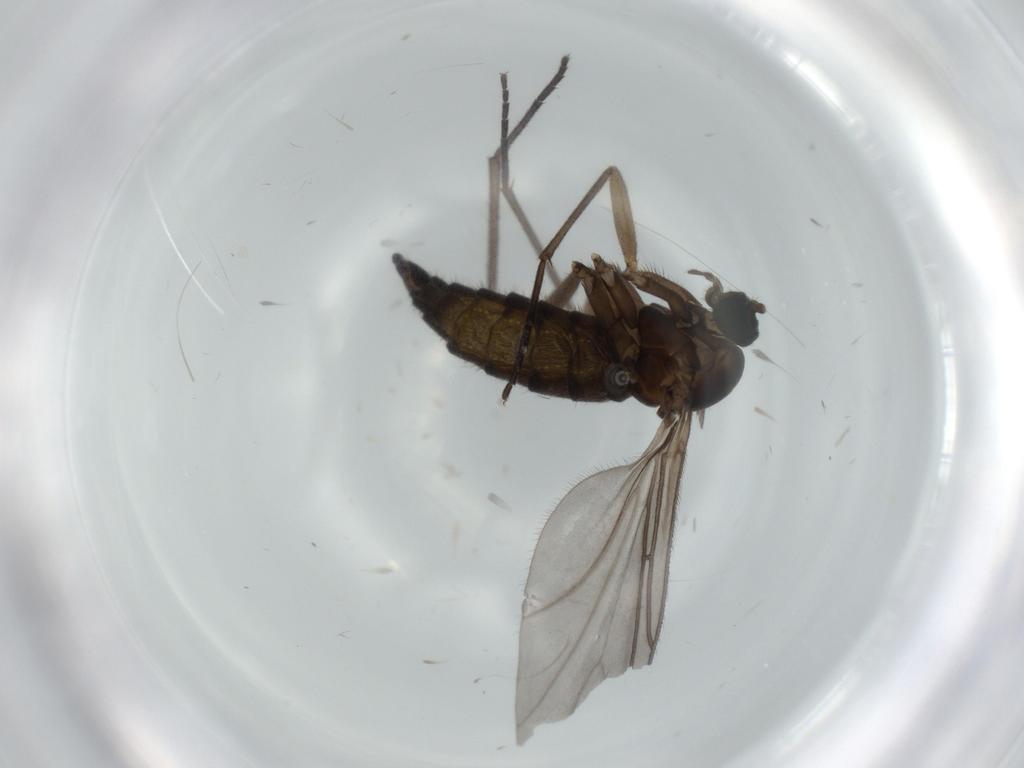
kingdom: Animalia
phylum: Arthropoda
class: Insecta
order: Diptera
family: Sciaridae
